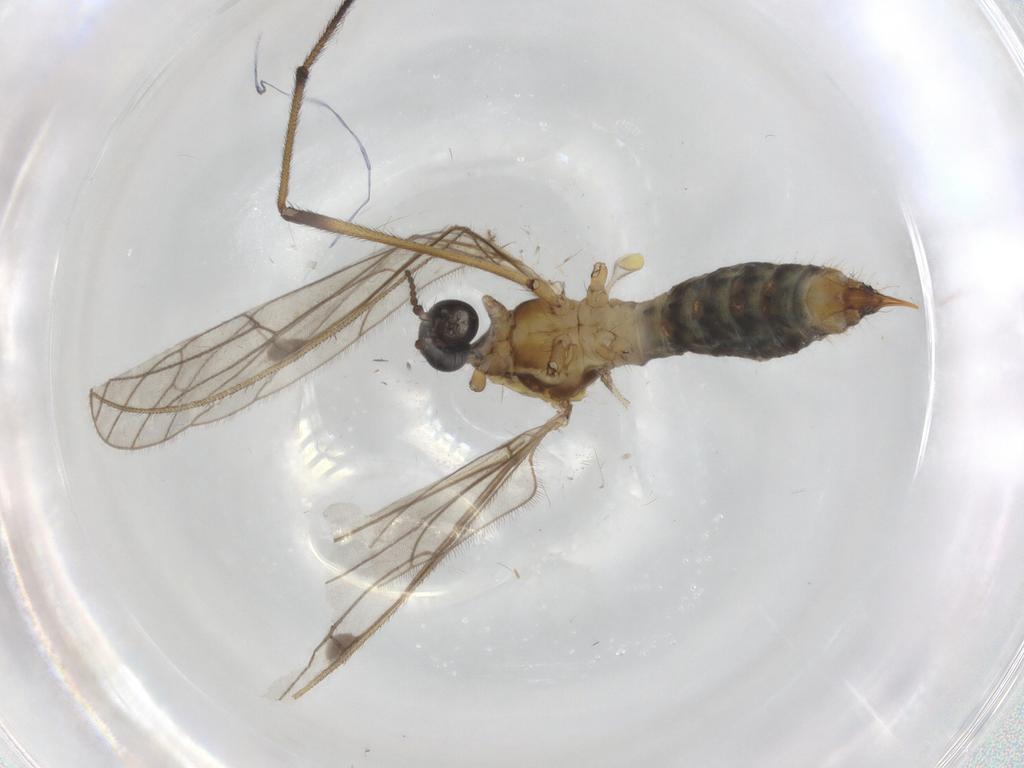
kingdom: Animalia
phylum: Arthropoda
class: Insecta
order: Diptera
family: Limoniidae
